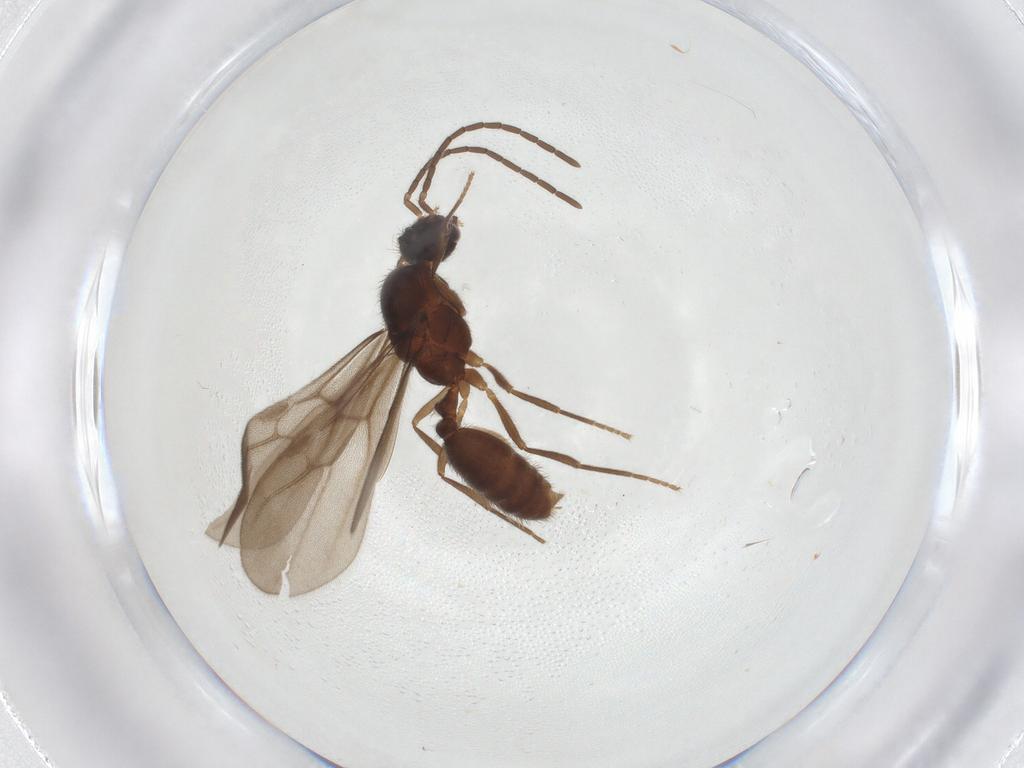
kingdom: Animalia
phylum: Arthropoda
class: Insecta
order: Hymenoptera
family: Formicidae
